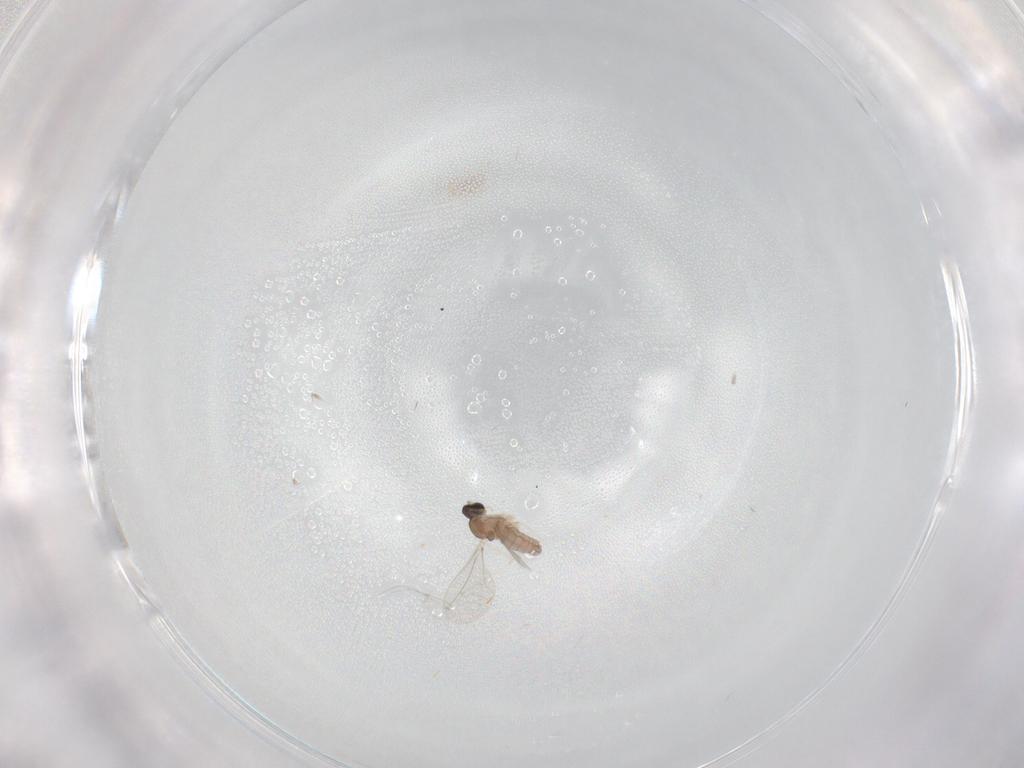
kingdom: Animalia
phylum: Arthropoda
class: Insecta
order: Diptera
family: Cecidomyiidae
